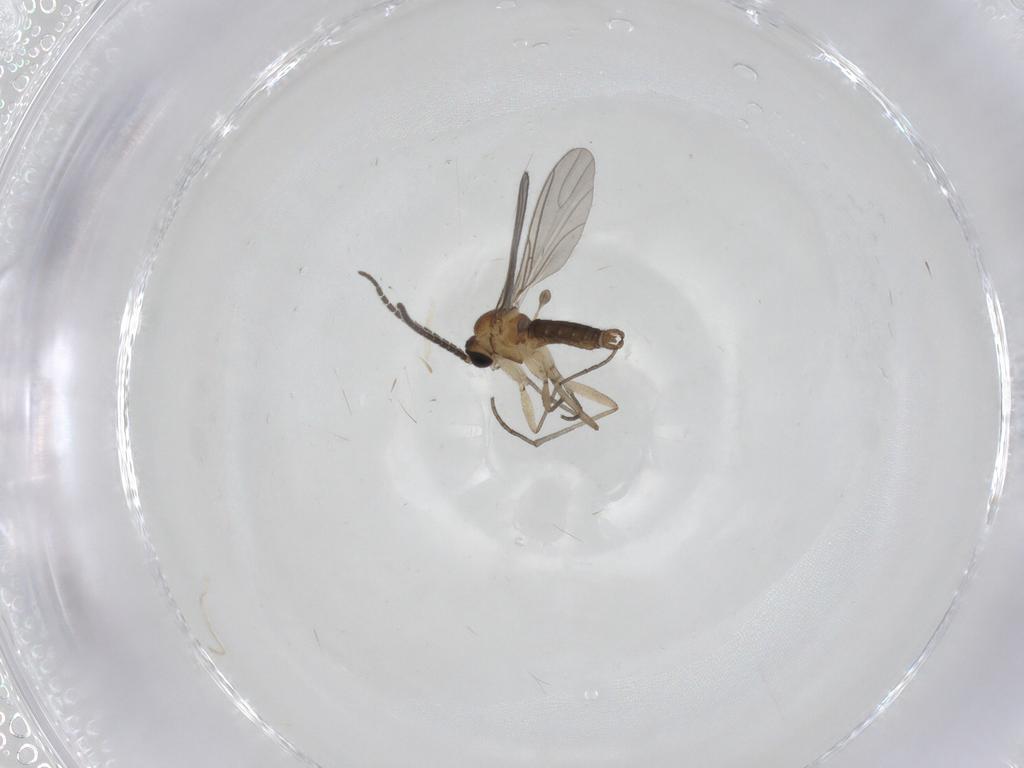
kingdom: Animalia
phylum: Arthropoda
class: Insecta
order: Diptera
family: Sciaridae
